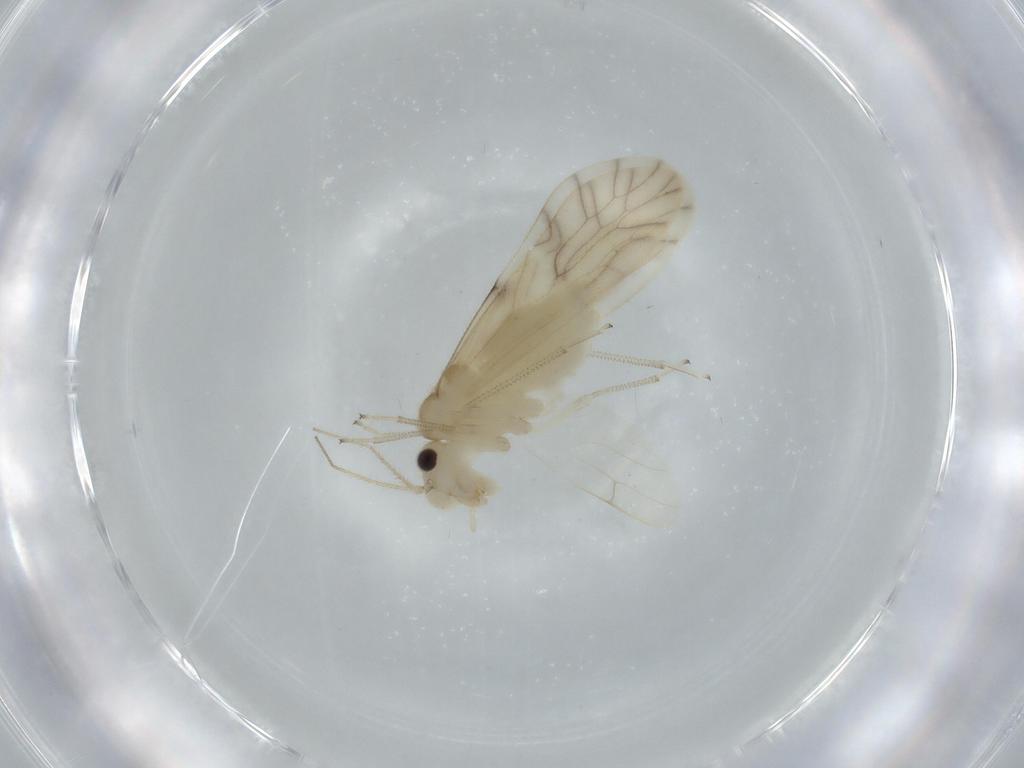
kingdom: Animalia
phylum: Arthropoda
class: Insecta
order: Psocodea
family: Caeciliusidae
